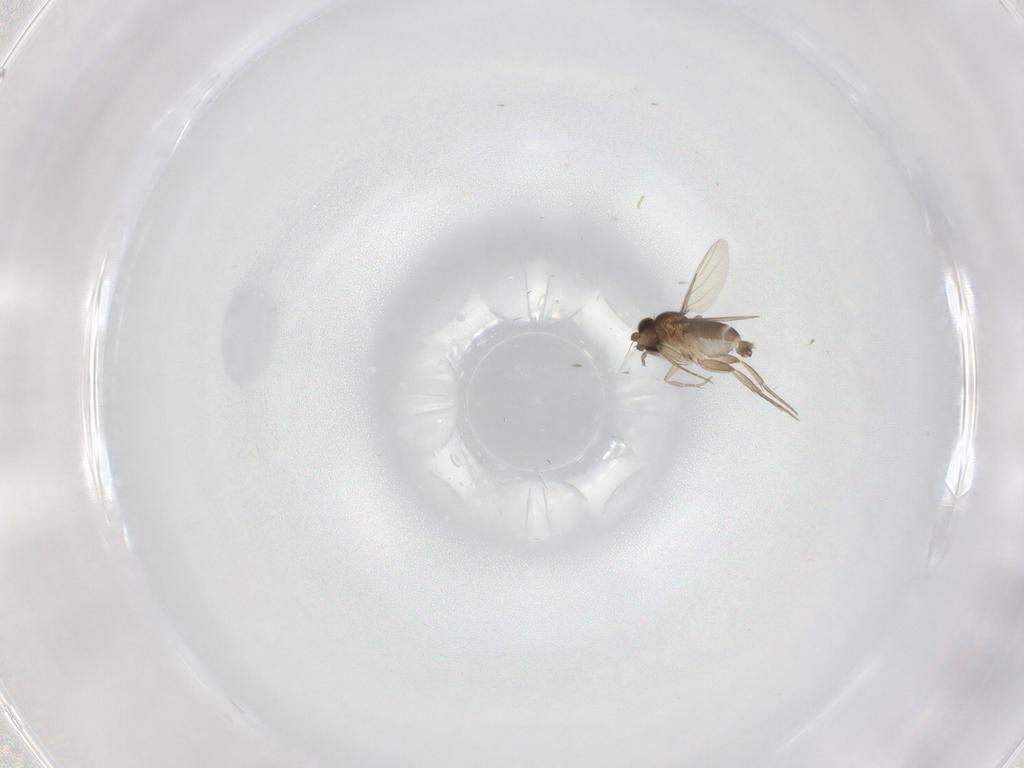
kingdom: Animalia
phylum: Arthropoda
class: Insecta
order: Diptera
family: Phoridae
